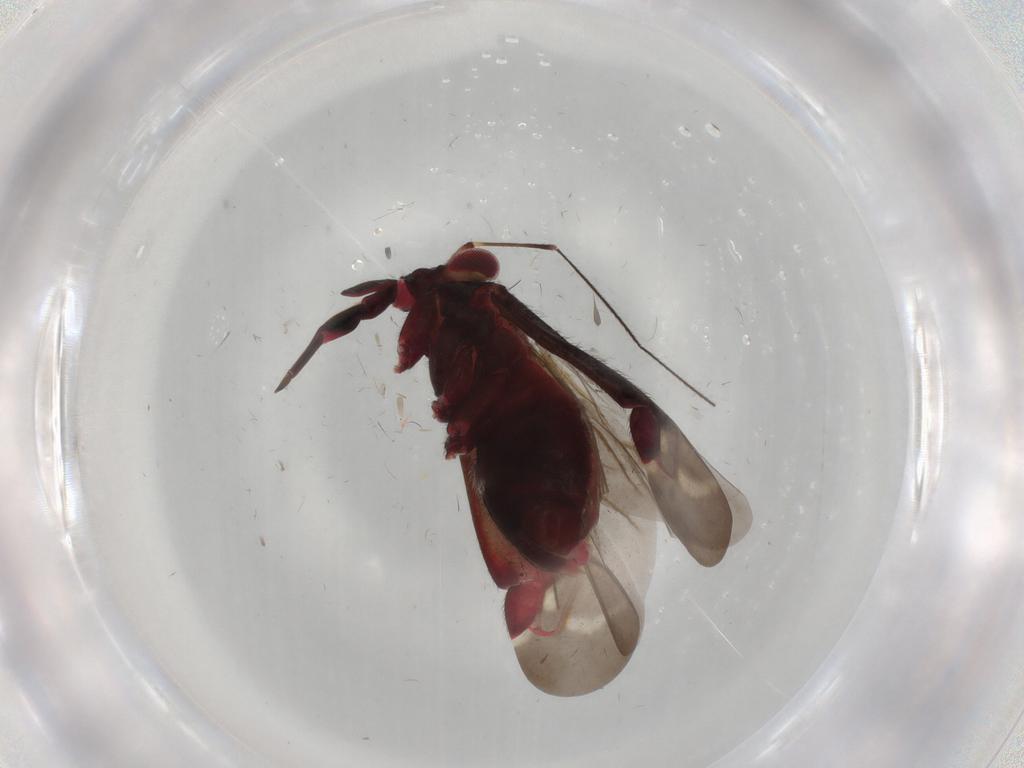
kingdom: Animalia
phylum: Arthropoda
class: Insecta
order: Hemiptera
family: Miridae
